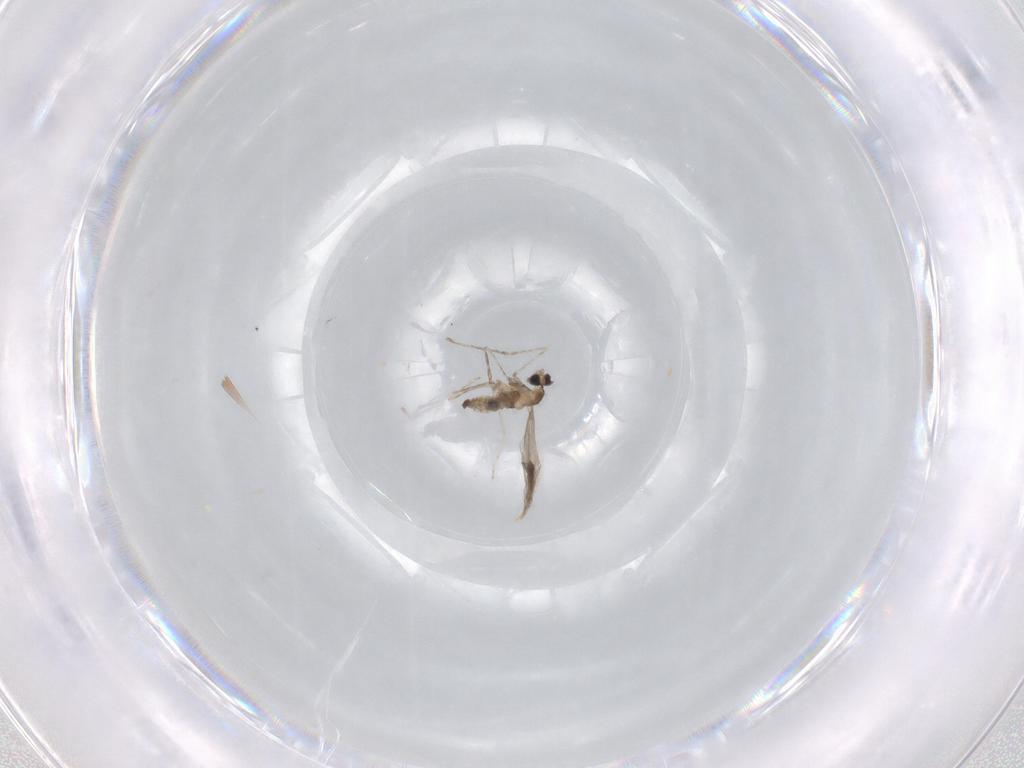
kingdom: Animalia
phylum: Arthropoda
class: Insecta
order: Diptera
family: Cecidomyiidae
